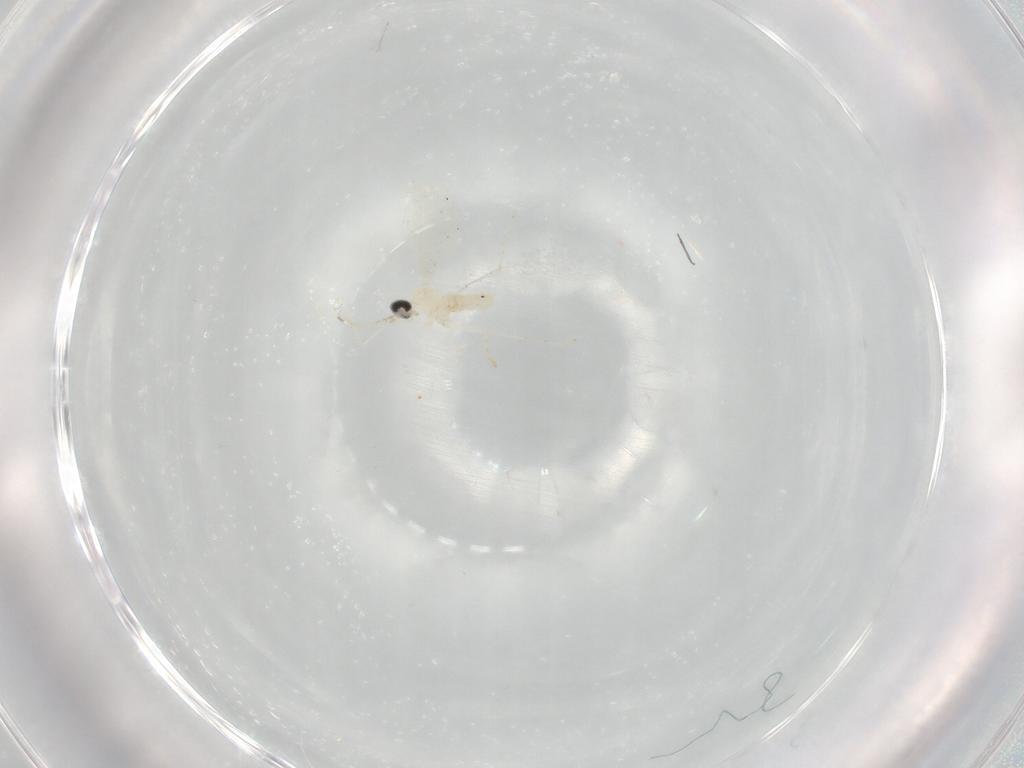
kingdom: Animalia
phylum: Arthropoda
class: Insecta
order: Diptera
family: Cecidomyiidae
